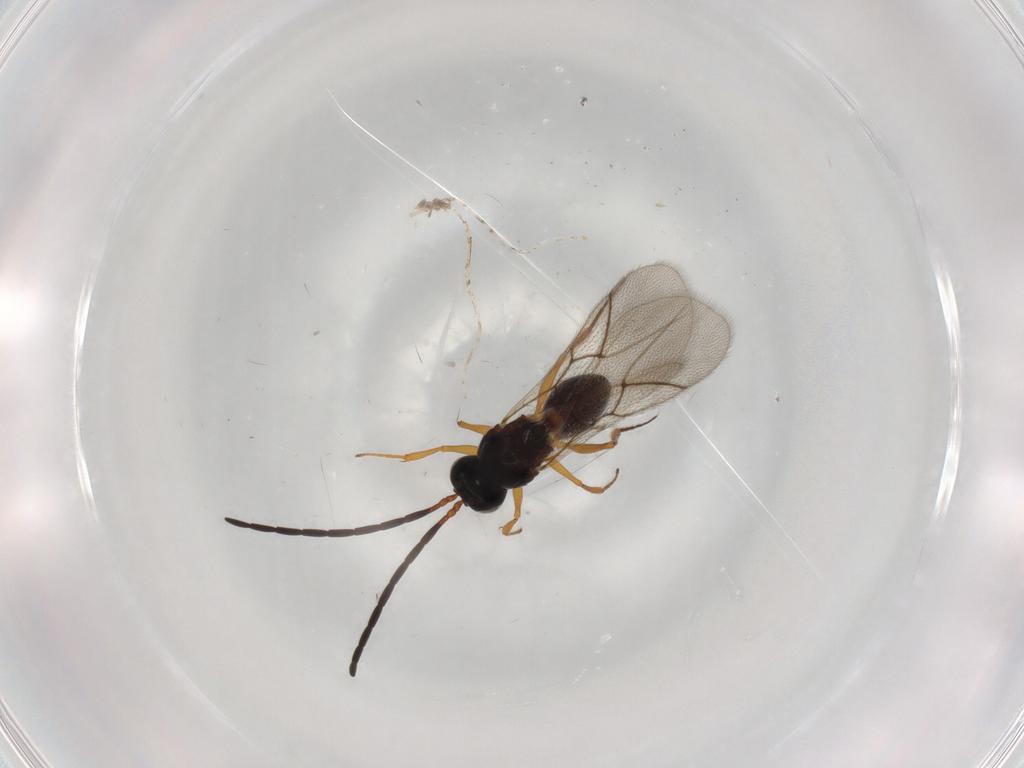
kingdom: Animalia
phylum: Arthropoda
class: Insecta
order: Hymenoptera
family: Figitidae
